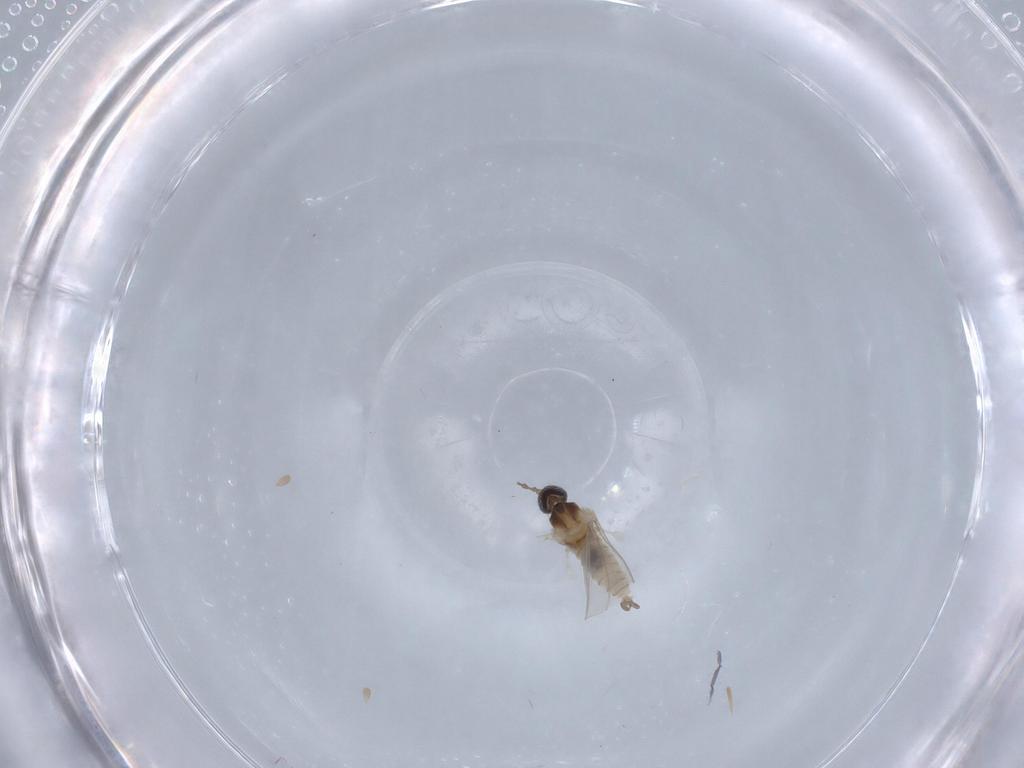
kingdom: Animalia
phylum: Arthropoda
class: Insecta
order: Diptera
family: Cecidomyiidae
